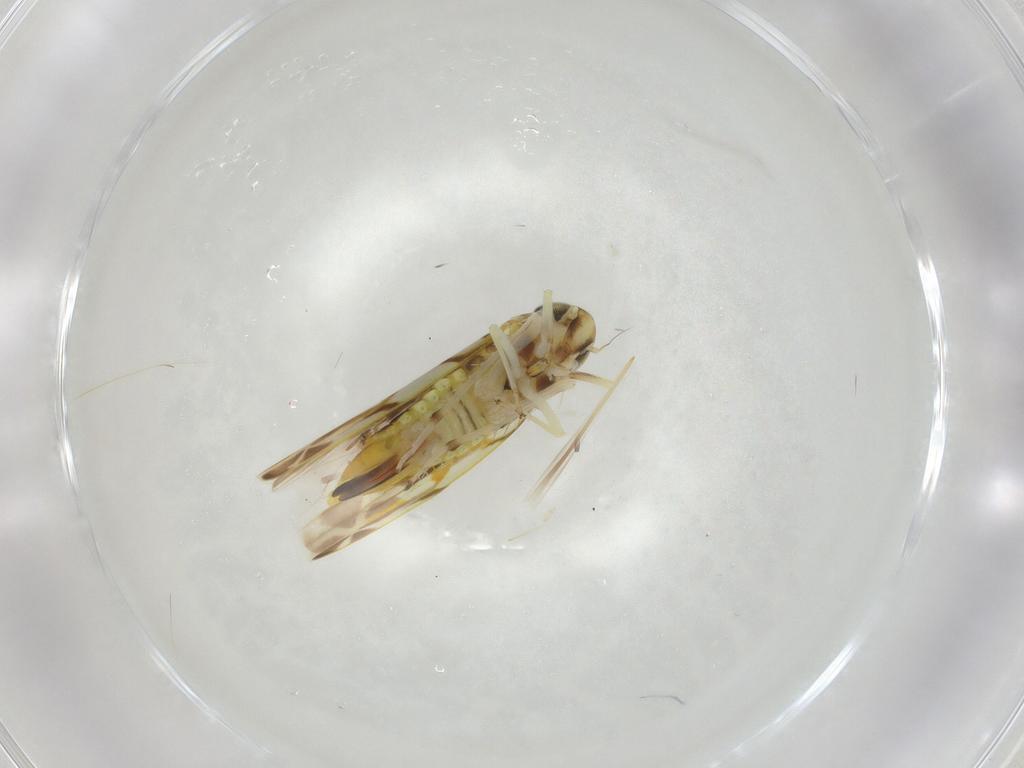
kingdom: Animalia
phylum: Arthropoda
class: Insecta
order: Hemiptera
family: Cicadellidae
